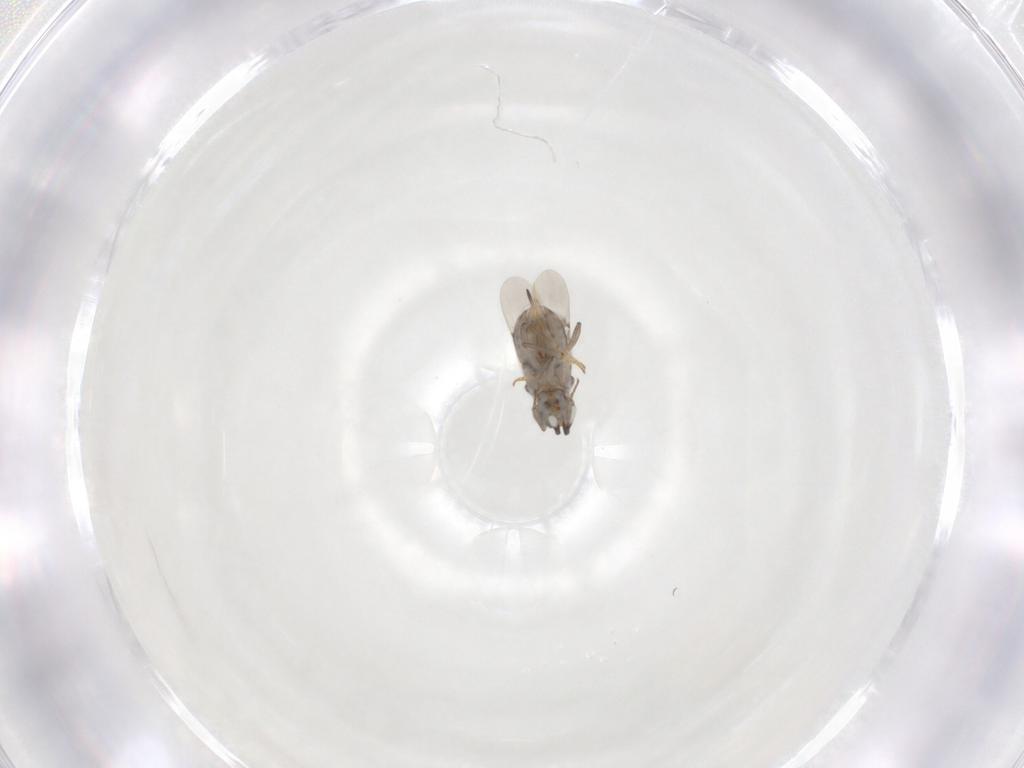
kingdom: Animalia
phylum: Arthropoda
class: Insecta
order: Hymenoptera
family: Encyrtidae
